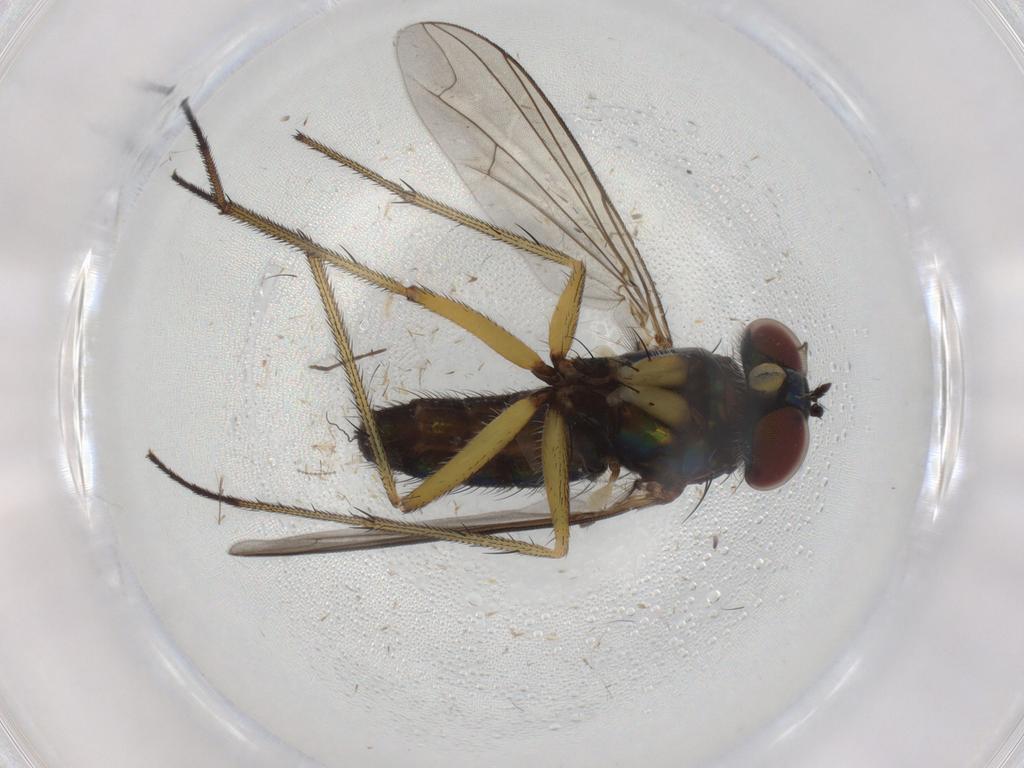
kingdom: Animalia
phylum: Arthropoda
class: Insecta
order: Diptera
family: Dolichopodidae
